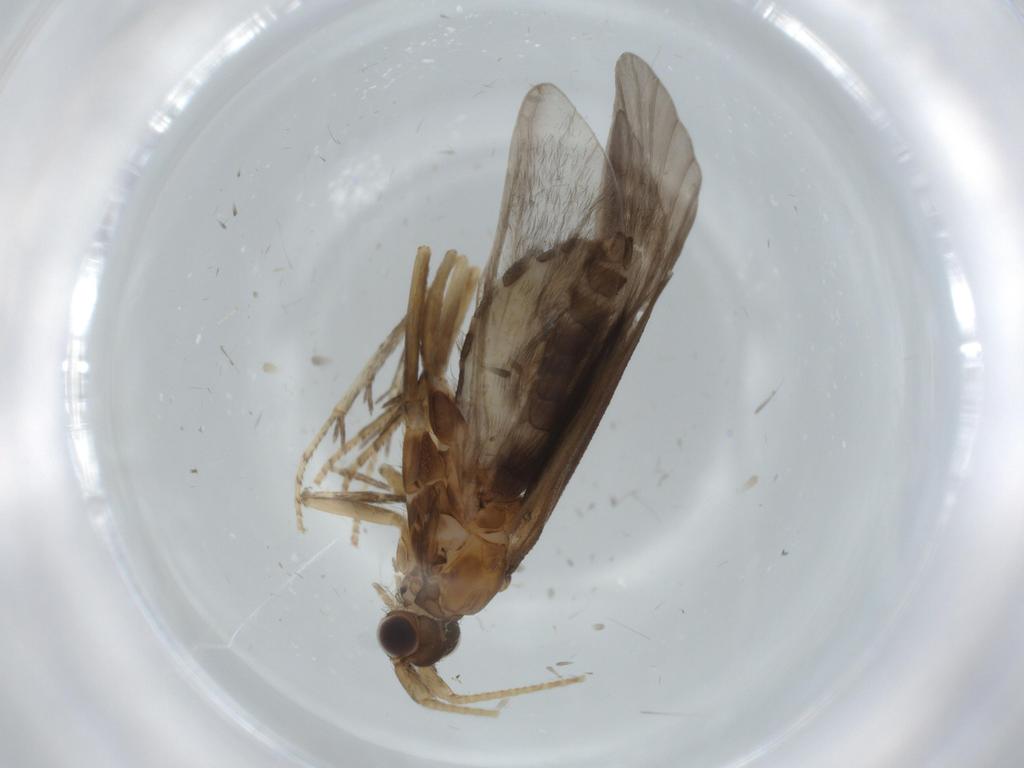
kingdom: Animalia
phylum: Arthropoda
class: Insecta
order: Trichoptera
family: Helicopsychidae
